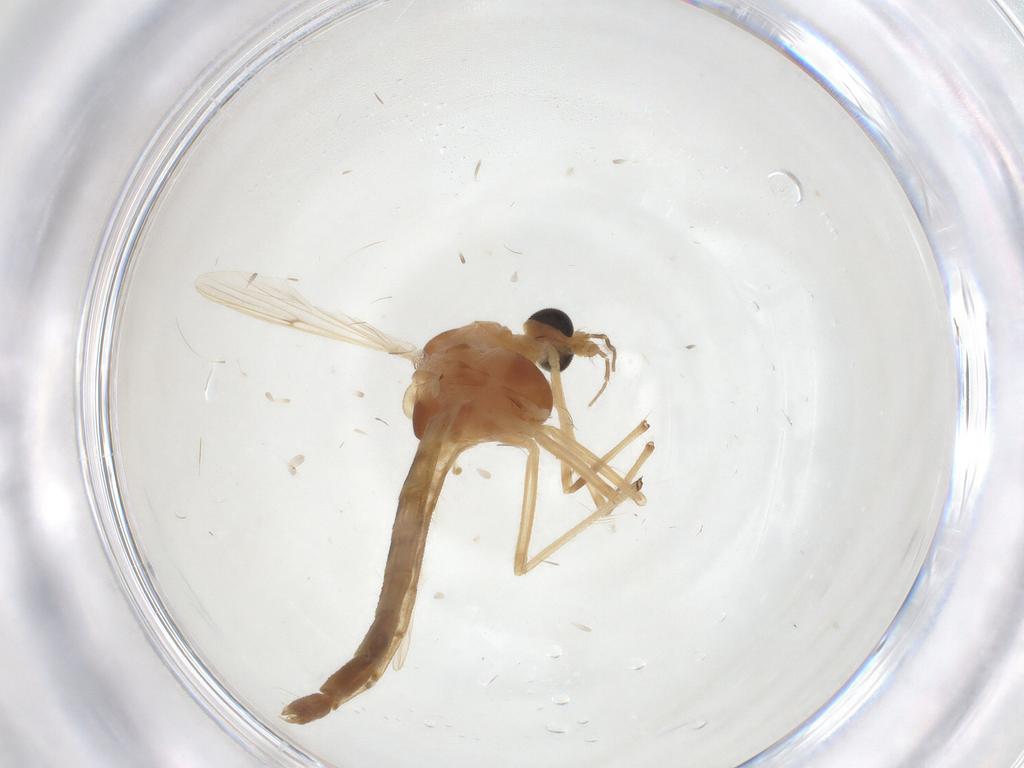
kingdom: Animalia
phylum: Arthropoda
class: Insecta
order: Diptera
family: Chironomidae
